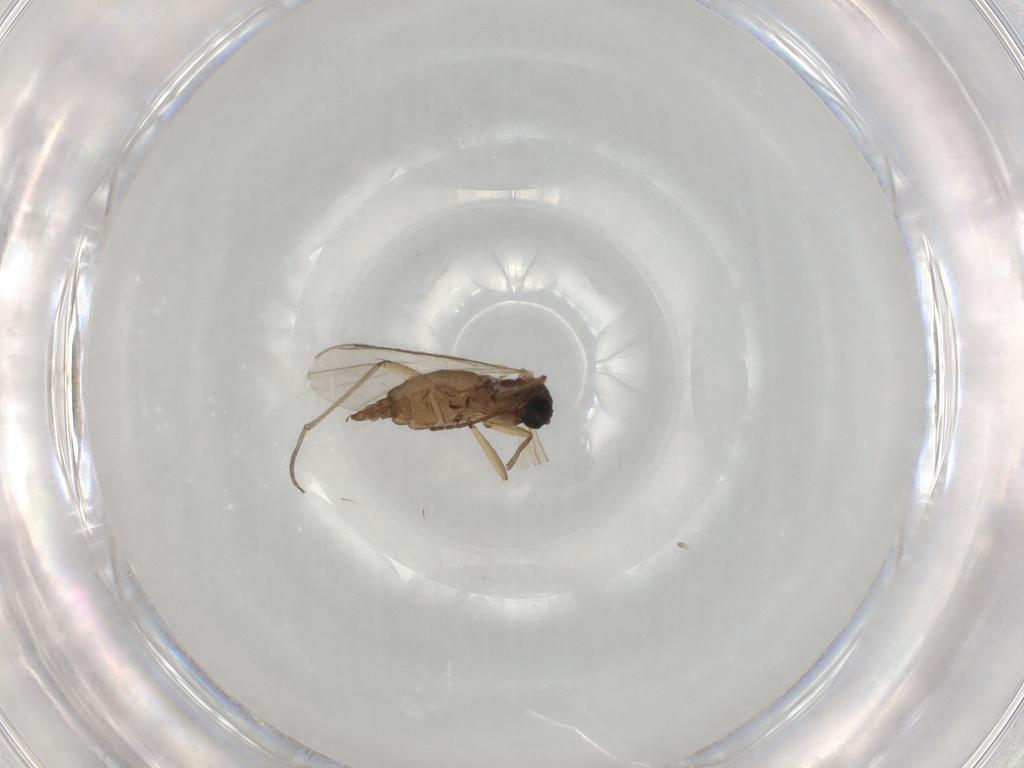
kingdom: Animalia
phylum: Arthropoda
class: Insecta
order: Diptera
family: Sciaridae
